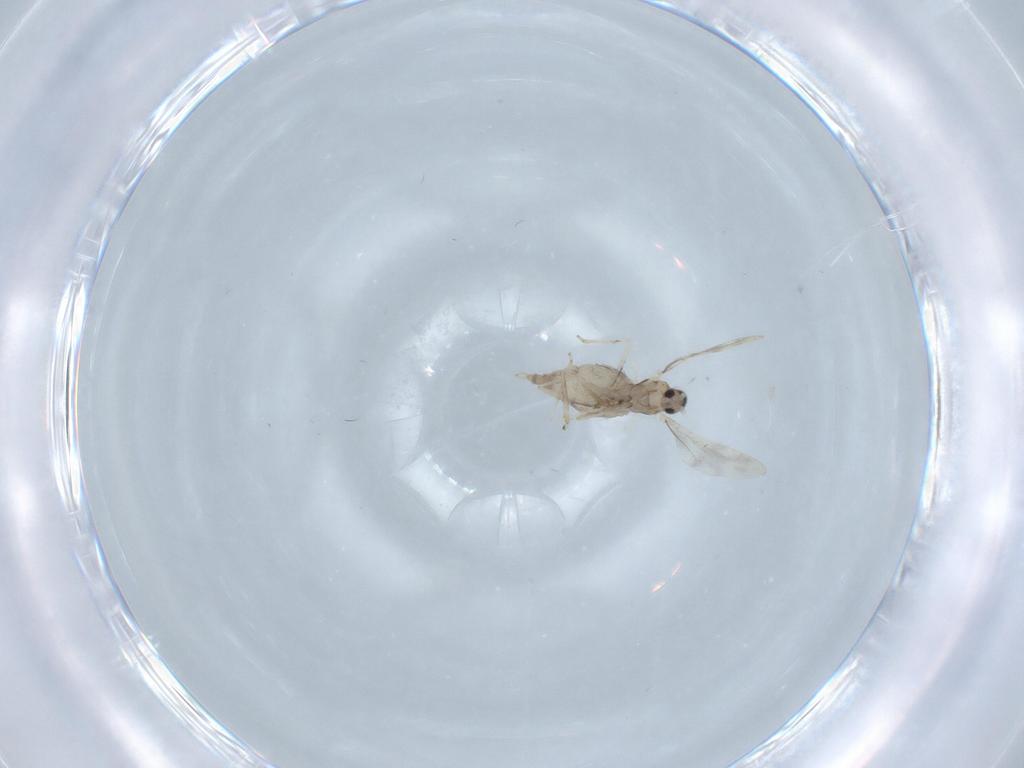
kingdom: Animalia
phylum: Arthropoda
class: Insecta
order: Diptera
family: Cecidomyiidae
